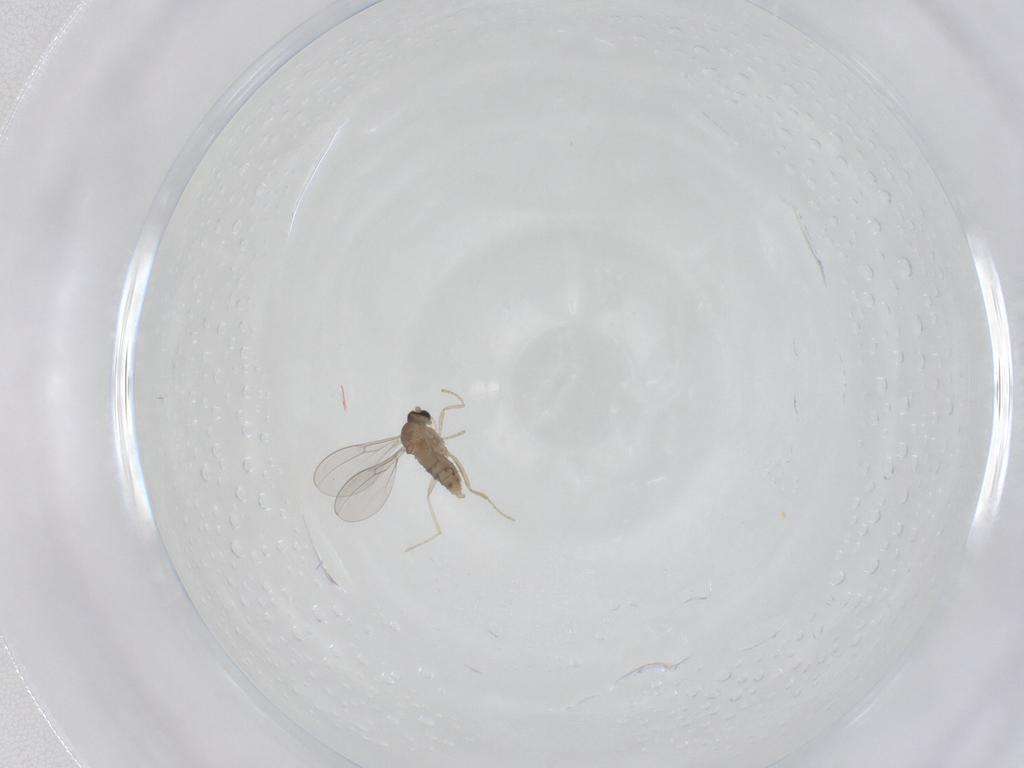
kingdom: Animalia
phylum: Arthropoda
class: Insecta
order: Diptera
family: Cecidomyiidae
